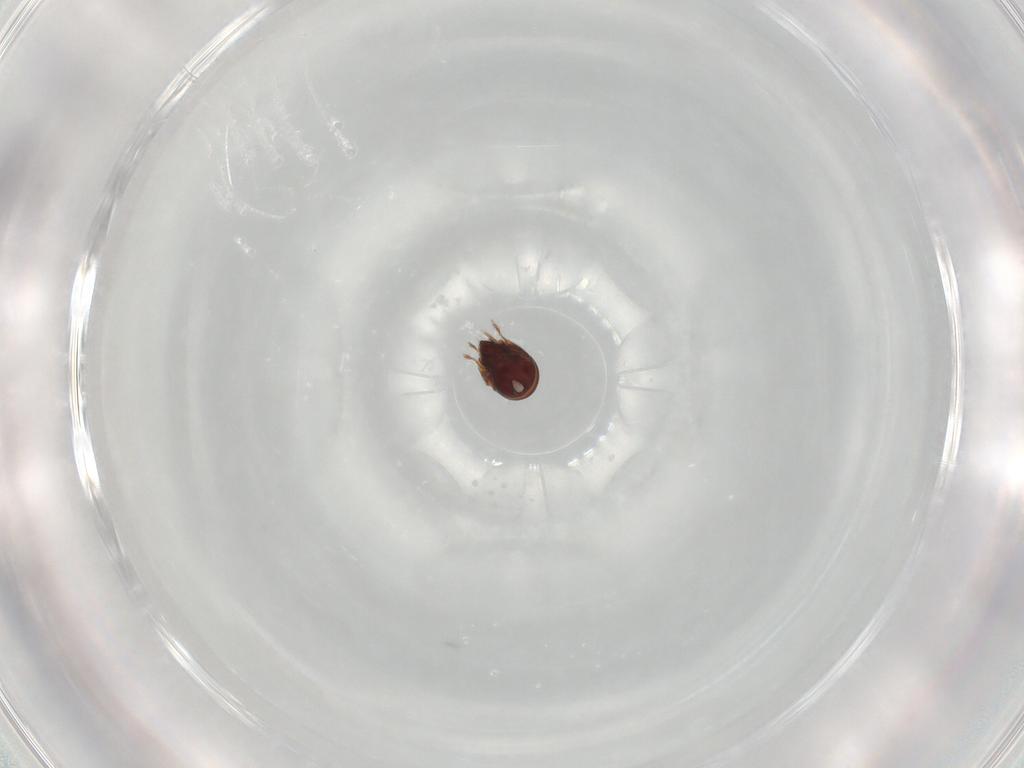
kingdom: Animalia
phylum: Arthropoda
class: Arachnida
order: Sarcoptiformes
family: Ceratozetidae
